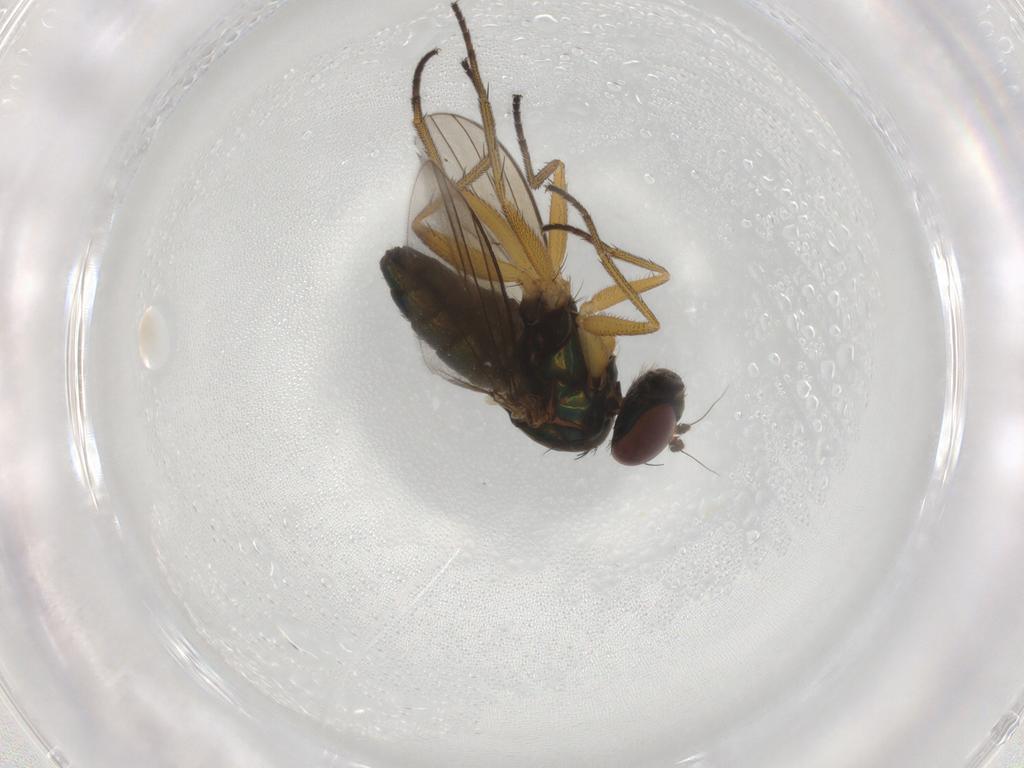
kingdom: Animalia
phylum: Arthropoda
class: Insecta
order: Diptera
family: Dolichopodidae
